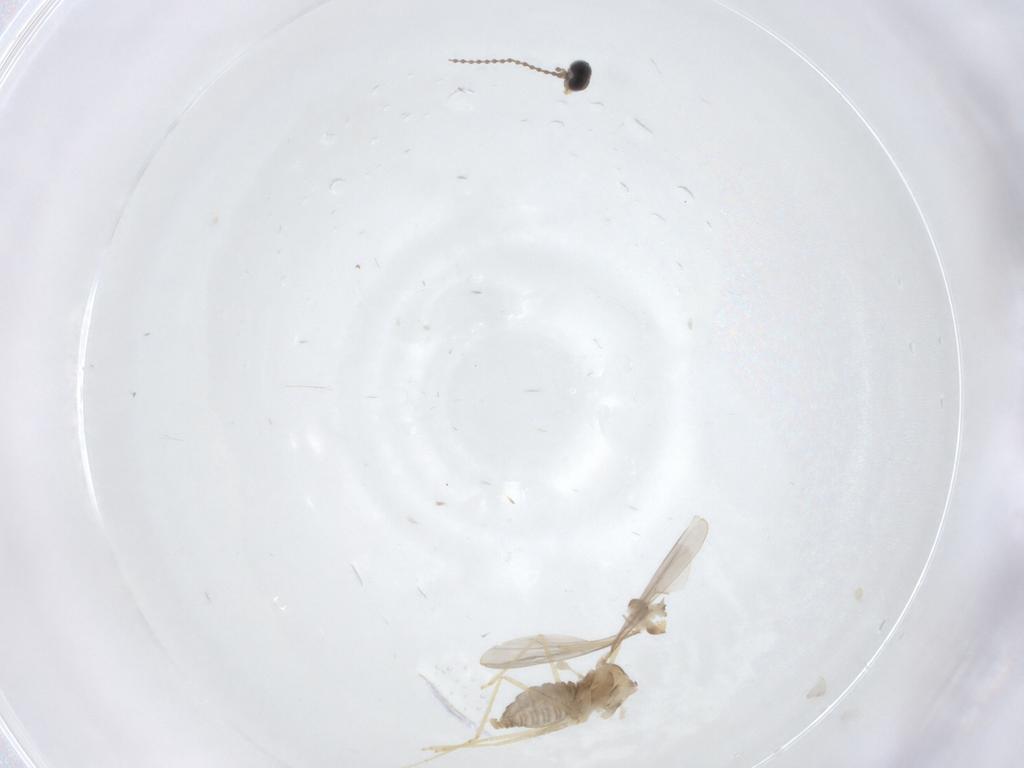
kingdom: Animalia
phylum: Arthropoda
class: Insecta
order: Diptera
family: Cecidomyiidae
